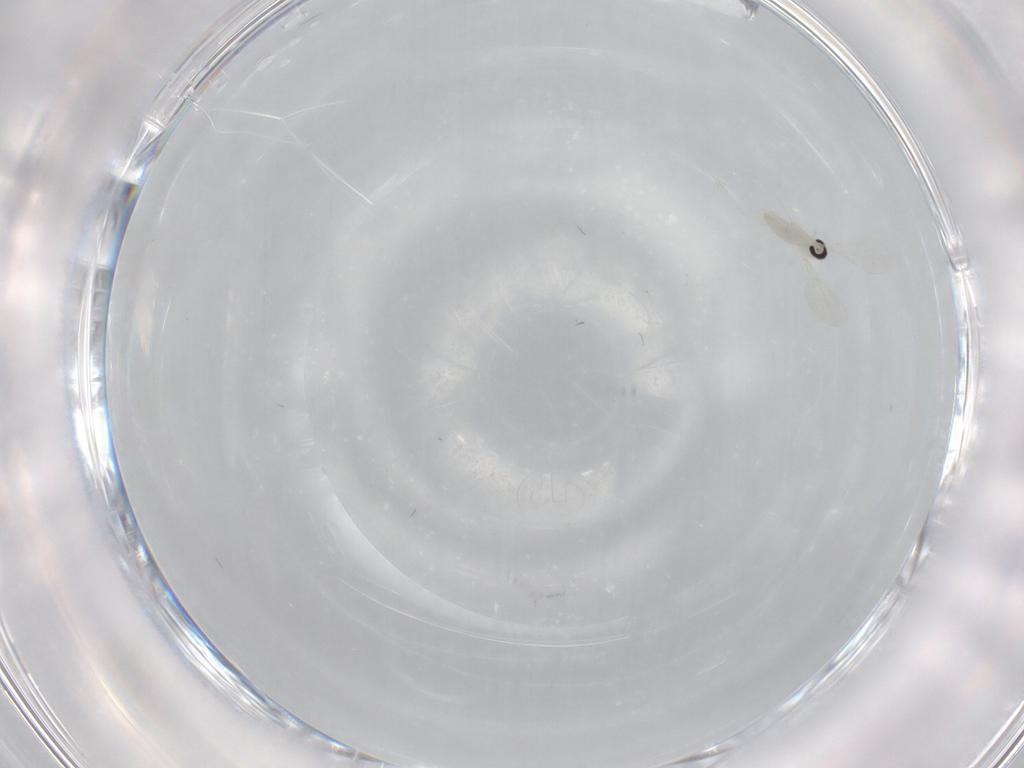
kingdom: Animalia
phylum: Arthropoda
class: Insecta
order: Diptera
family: Cecidomyiidae
